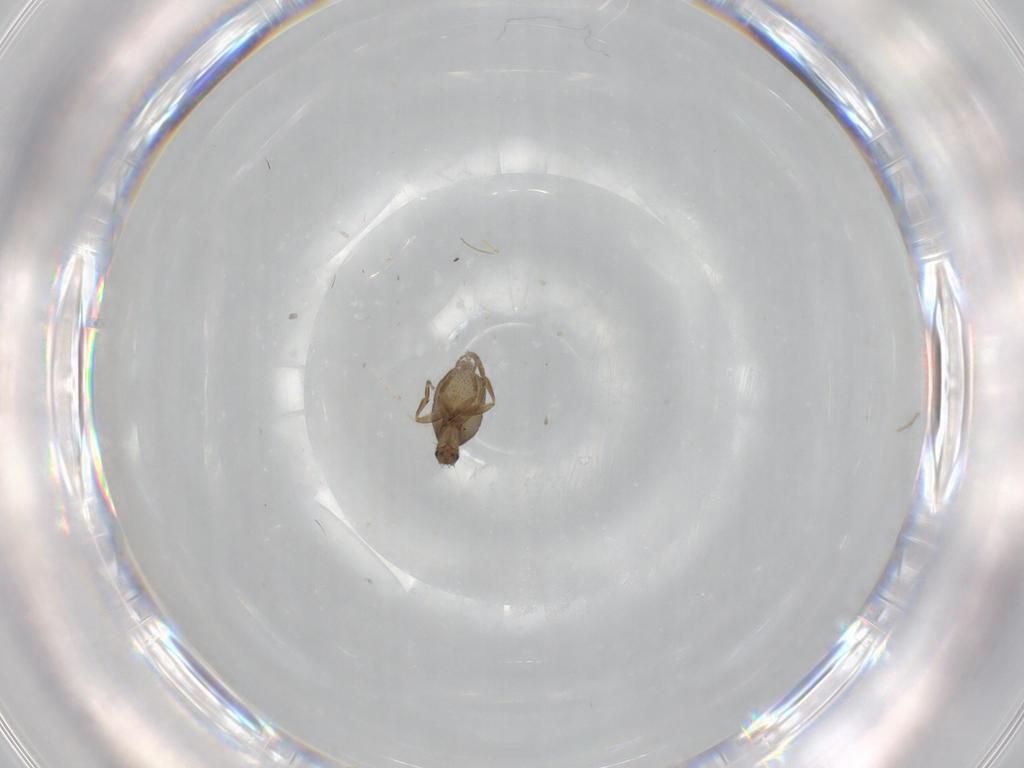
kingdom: Animalia
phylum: Arthropoda
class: Insecta
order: Diptera
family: Phoridae
